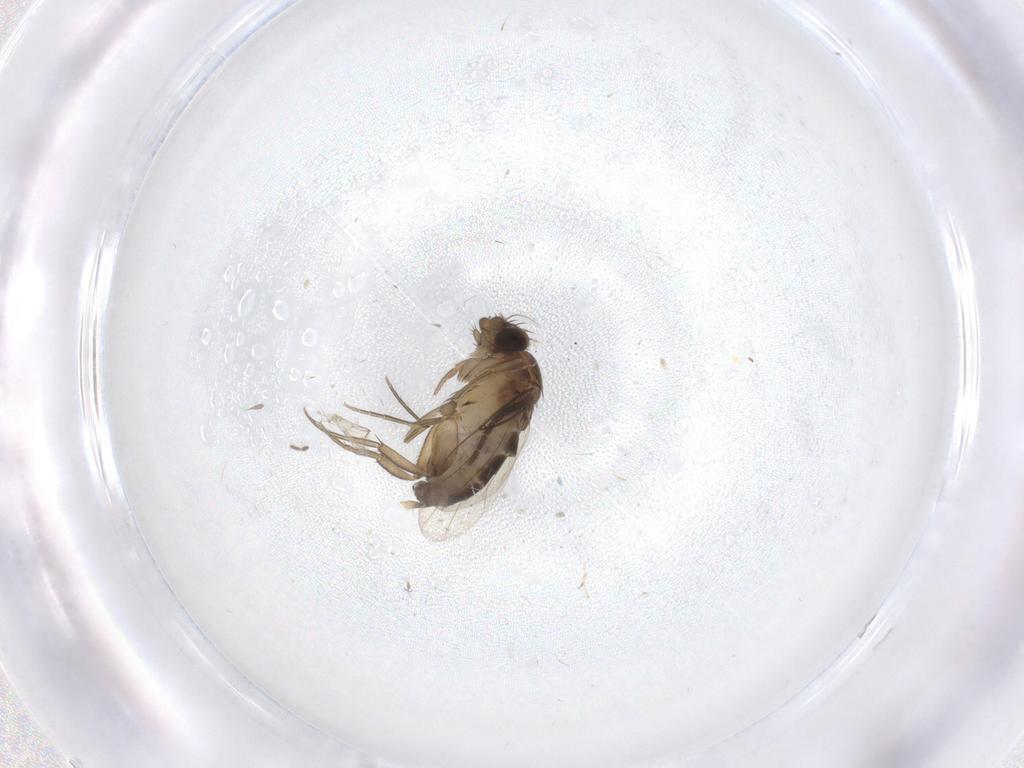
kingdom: Animalia
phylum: Arthropoda
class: Insecta
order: Diptera
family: Phoridae
